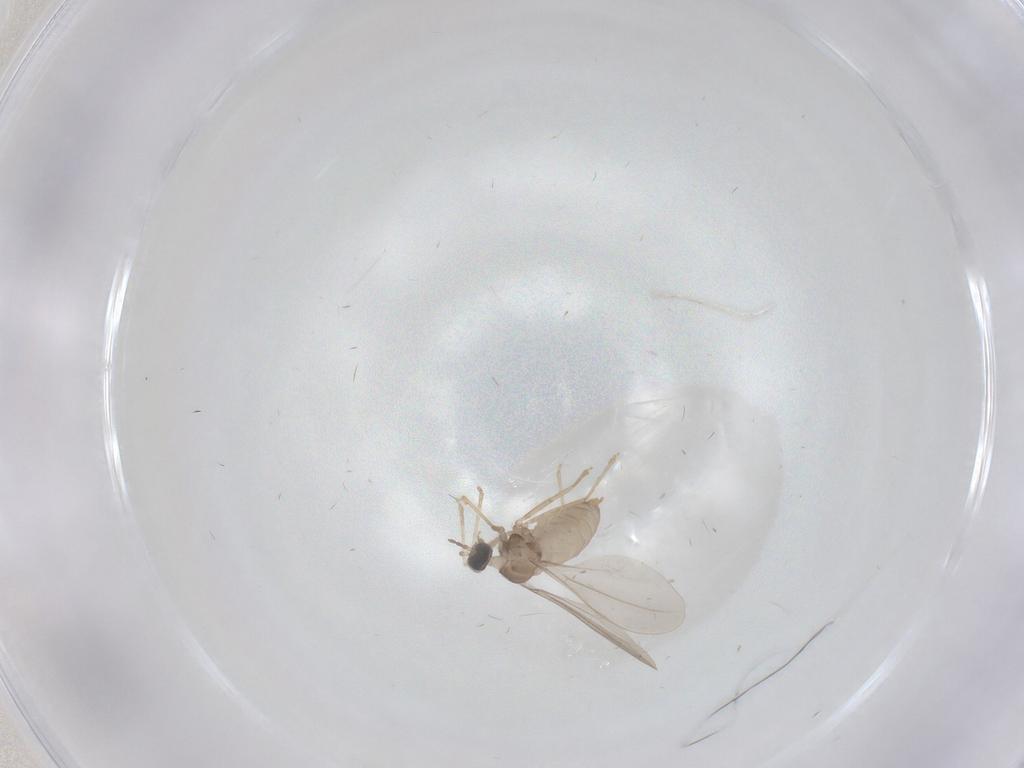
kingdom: Animalia
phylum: Arthropoda
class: Insecta
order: Diptera
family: Cecidomyiidae
